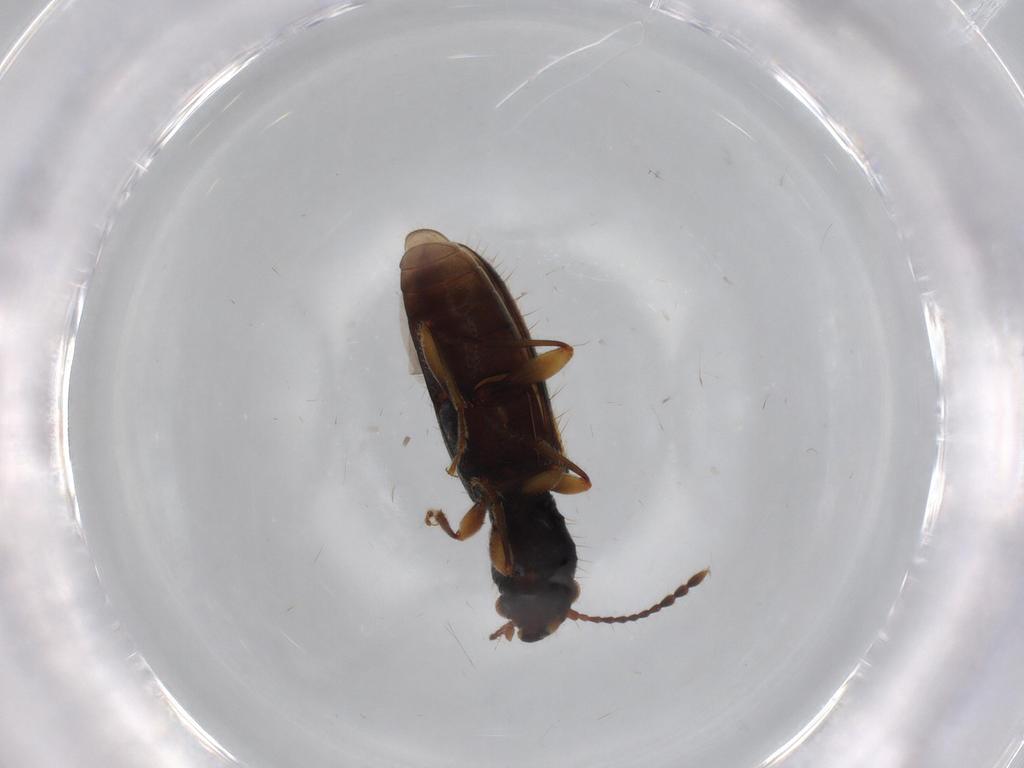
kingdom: Animalia
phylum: Arthropoda
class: Insecta
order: Coleoptera
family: Silvanidae
